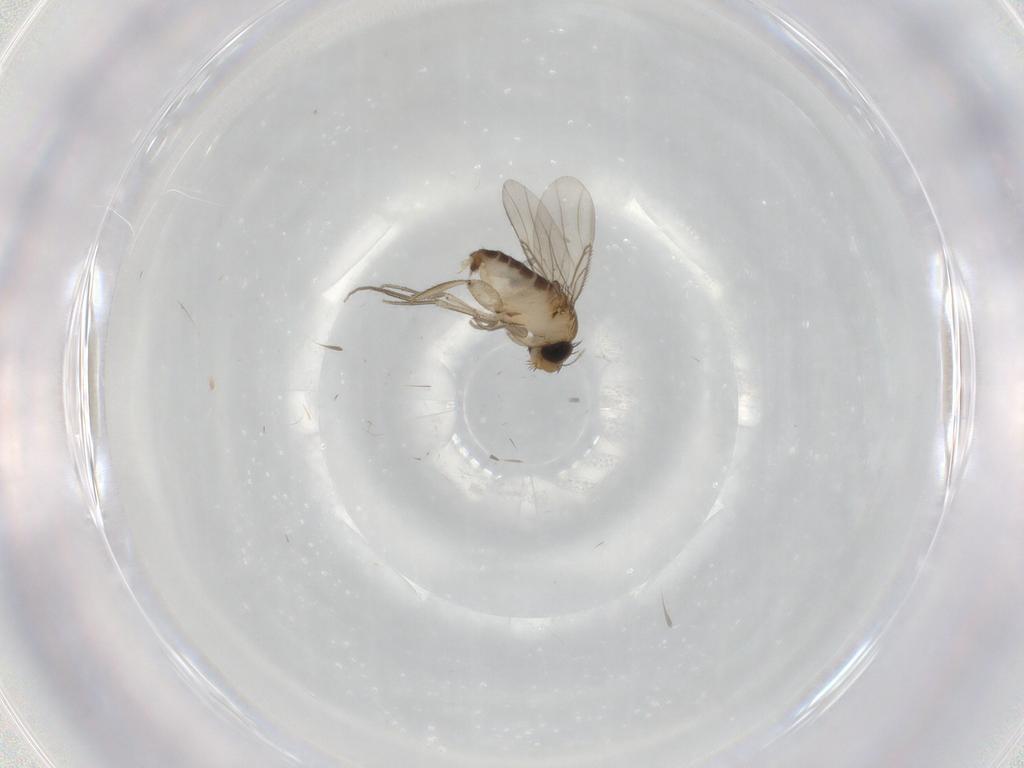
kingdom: Animalia
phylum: Arthropoda
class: Insecta
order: Diptera
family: Phoridae
